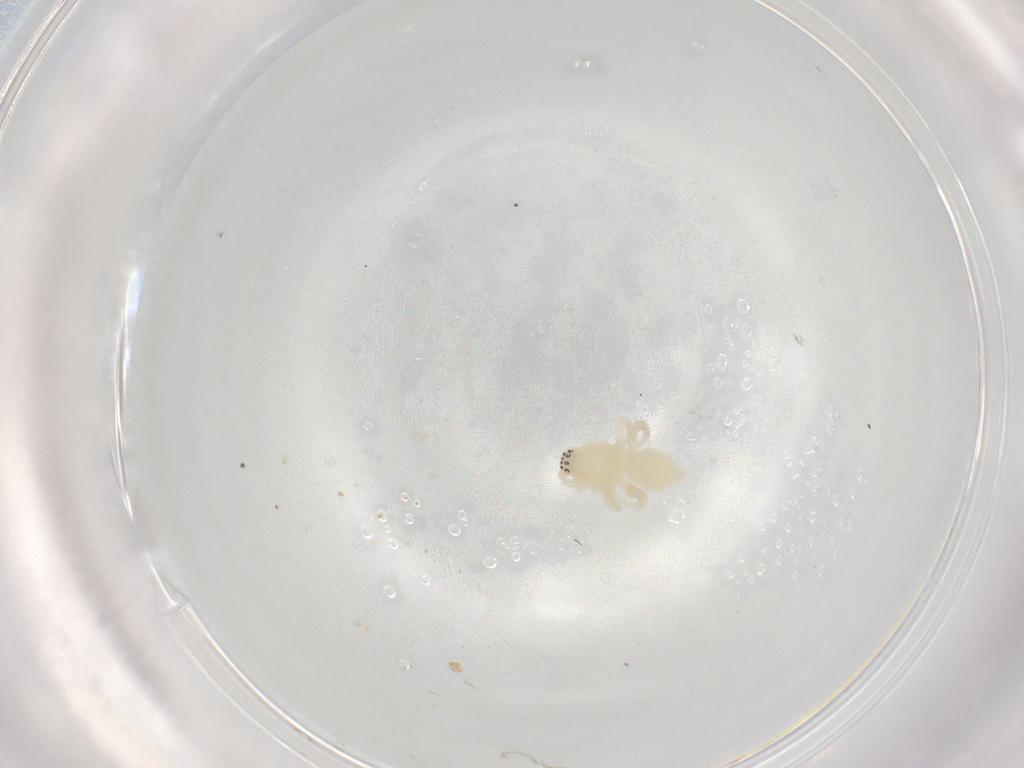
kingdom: Animalia
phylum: Arthropoda
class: Arachnida
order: Araneae
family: Anyphaenidae
